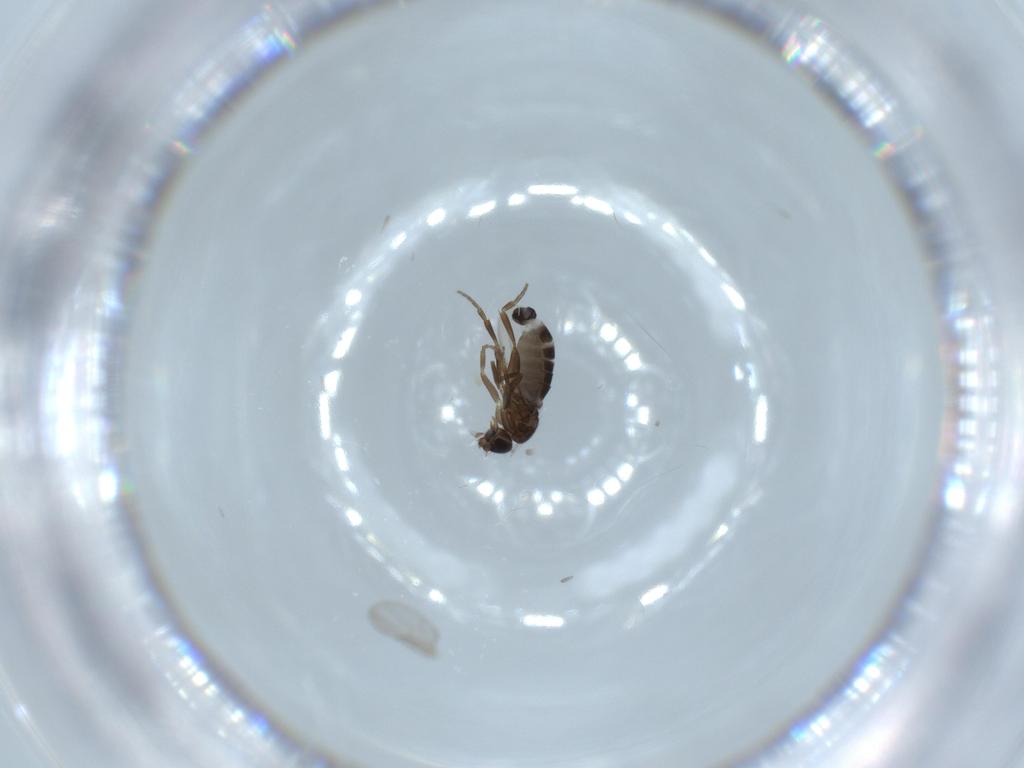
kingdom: Animalia
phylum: Arthropoda
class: Insecta
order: Diptera
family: Phoridae
